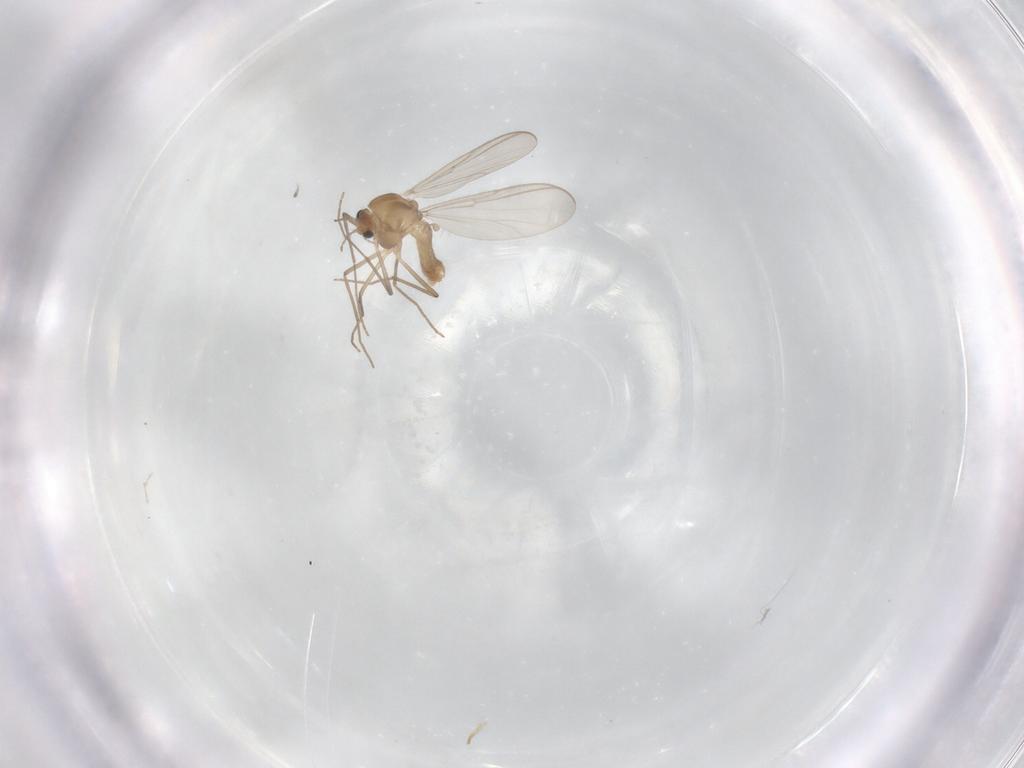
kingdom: Animalia
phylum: Arthropoda
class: Insecta
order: Diptera
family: Chironomidae
